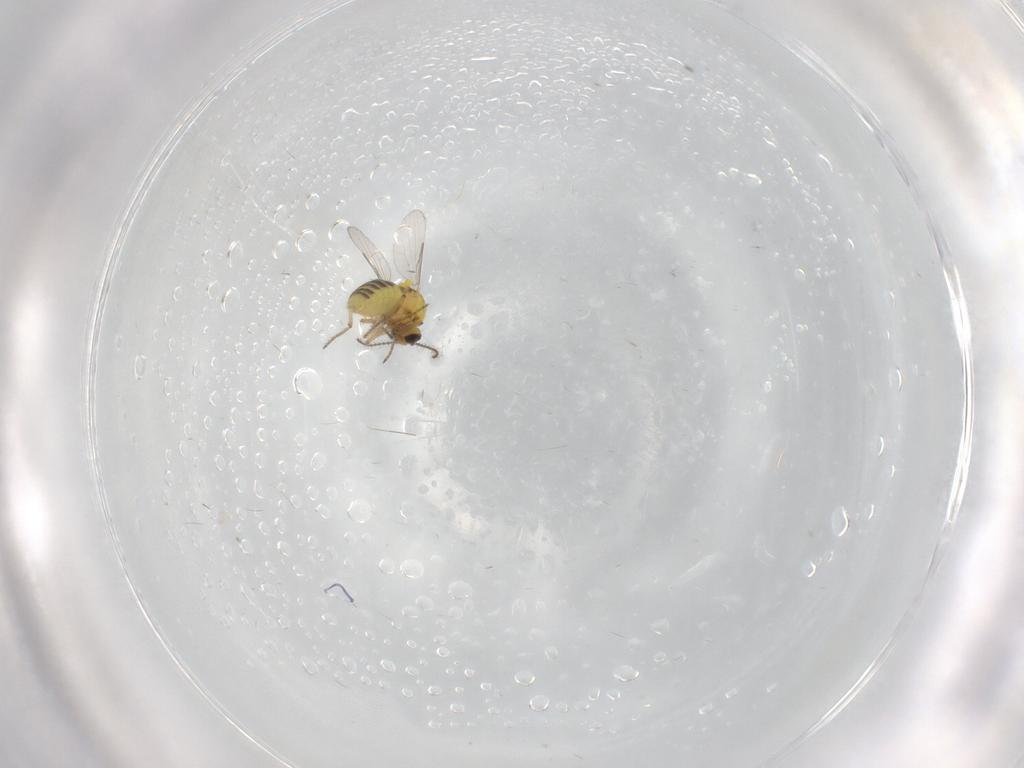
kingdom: Animalia
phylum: Arthropoda
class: Insecta
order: Diptera
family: Ceratopogonidae
